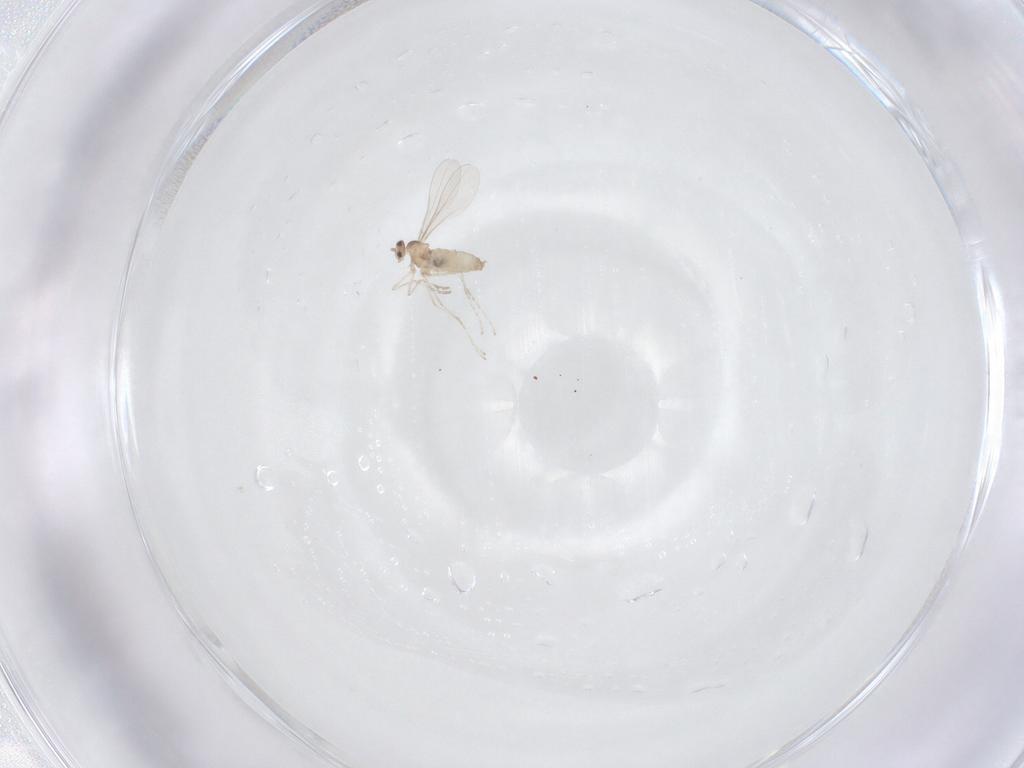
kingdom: Animalia
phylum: Arthropoda
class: Insecta
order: Diptera
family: Cecidomyiidae
